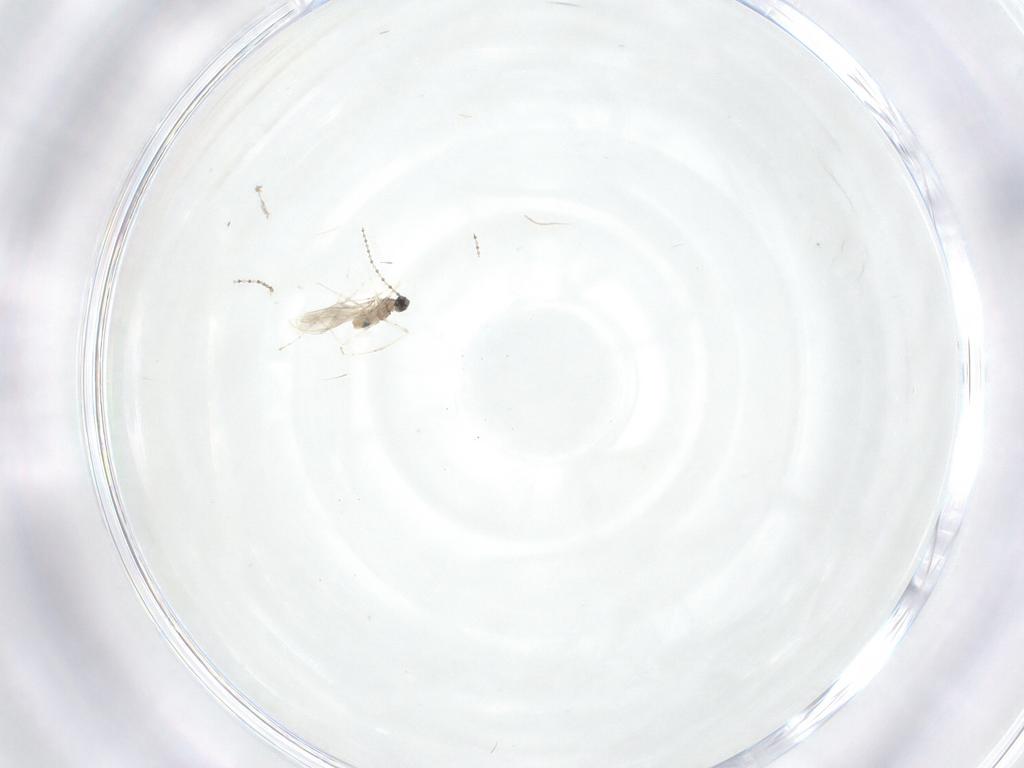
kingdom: Animalia
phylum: Arthropoda
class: Insecta
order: Diptera
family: Cecidomyiidae
